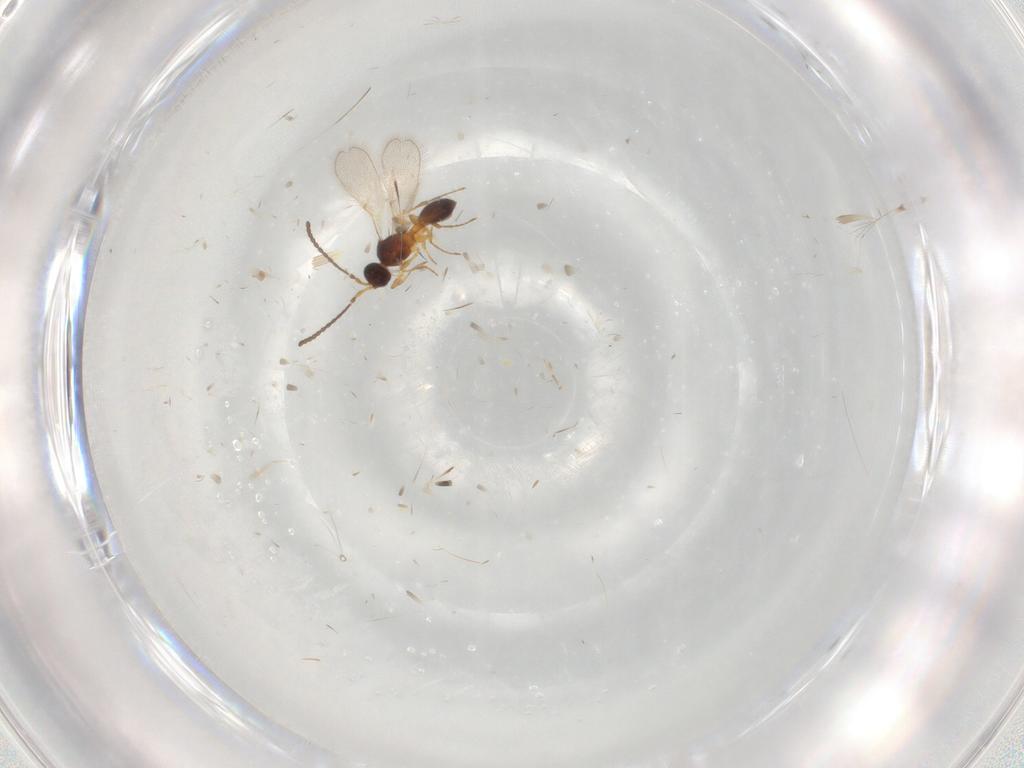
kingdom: Animalia
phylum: Arthropoda
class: Insecta
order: Hymenoptera
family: Diapriidae
